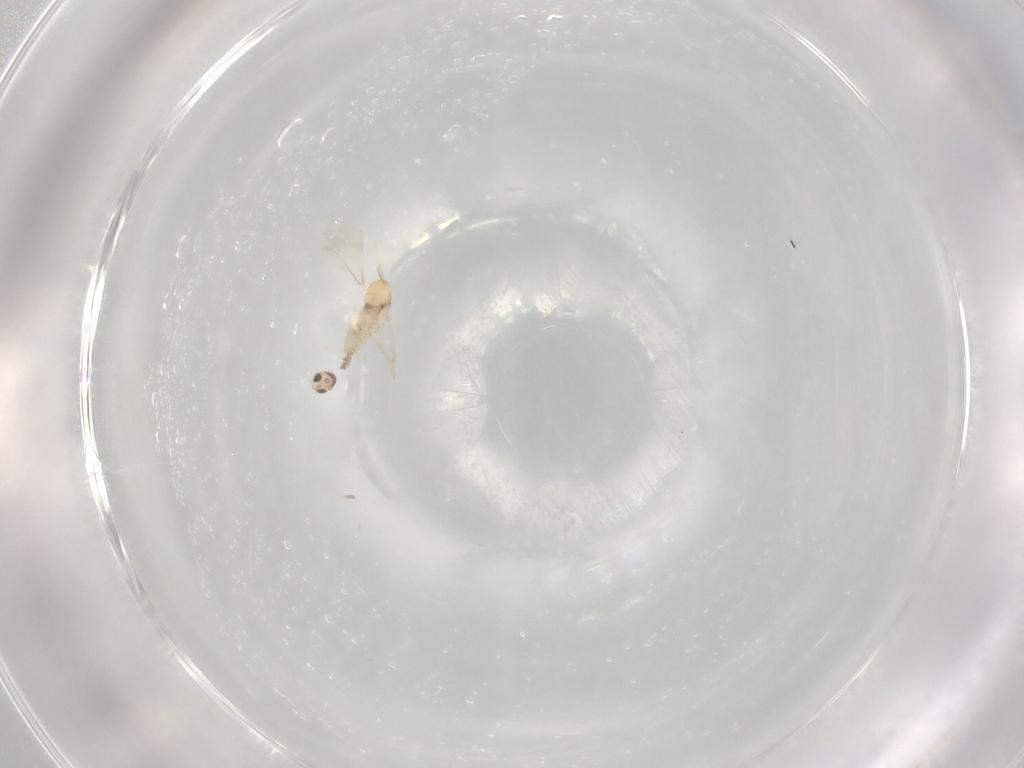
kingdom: Animalia
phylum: Arthropoda
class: Insecta
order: Diptera
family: Cecidomyiidae
